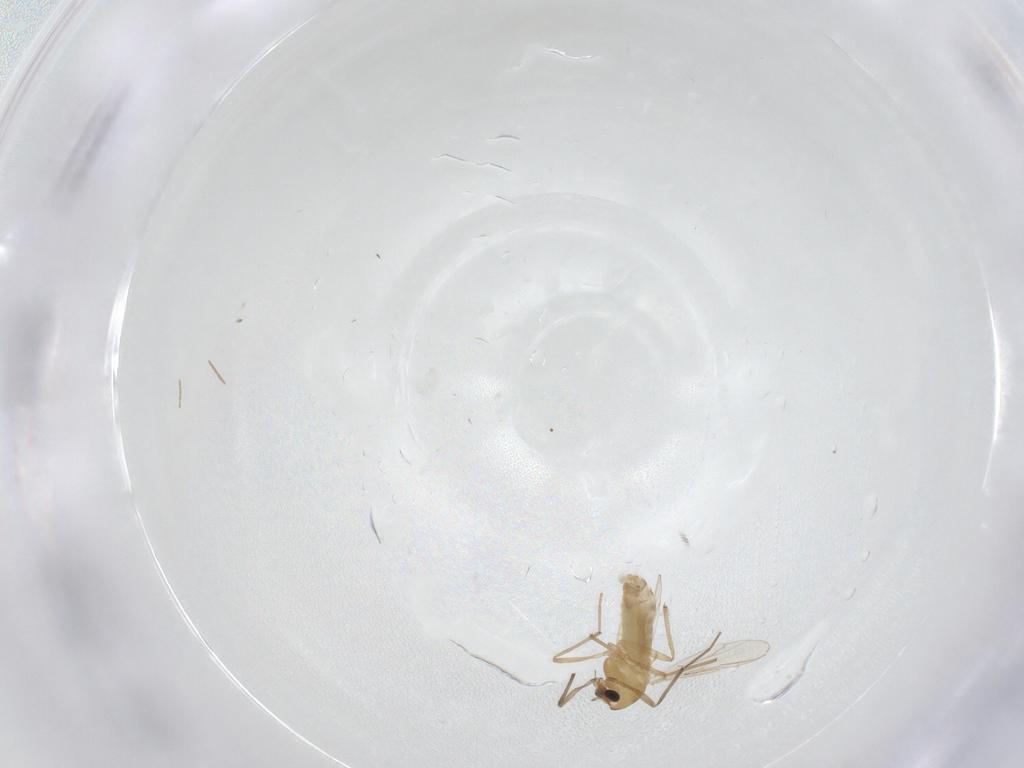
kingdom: Animalia
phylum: Arthropoda
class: Insecta
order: Diptera
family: Chironomidae
